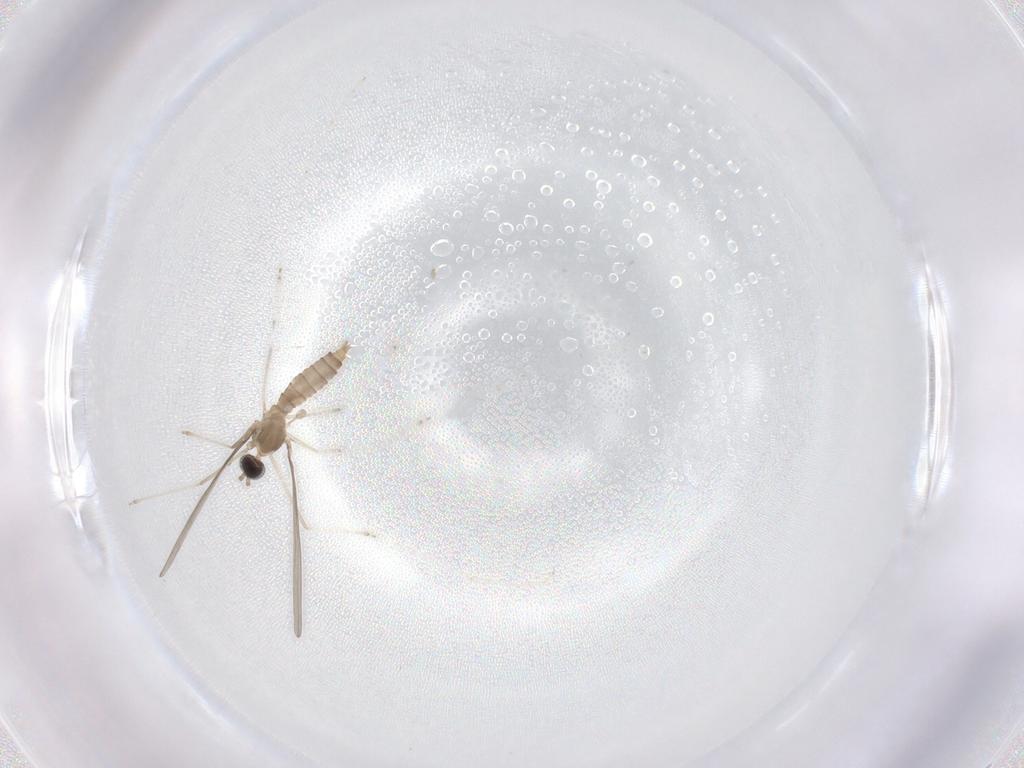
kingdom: Animalia
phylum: Arthropoda
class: Insecta
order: Diptera
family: Cecidomyiidae
